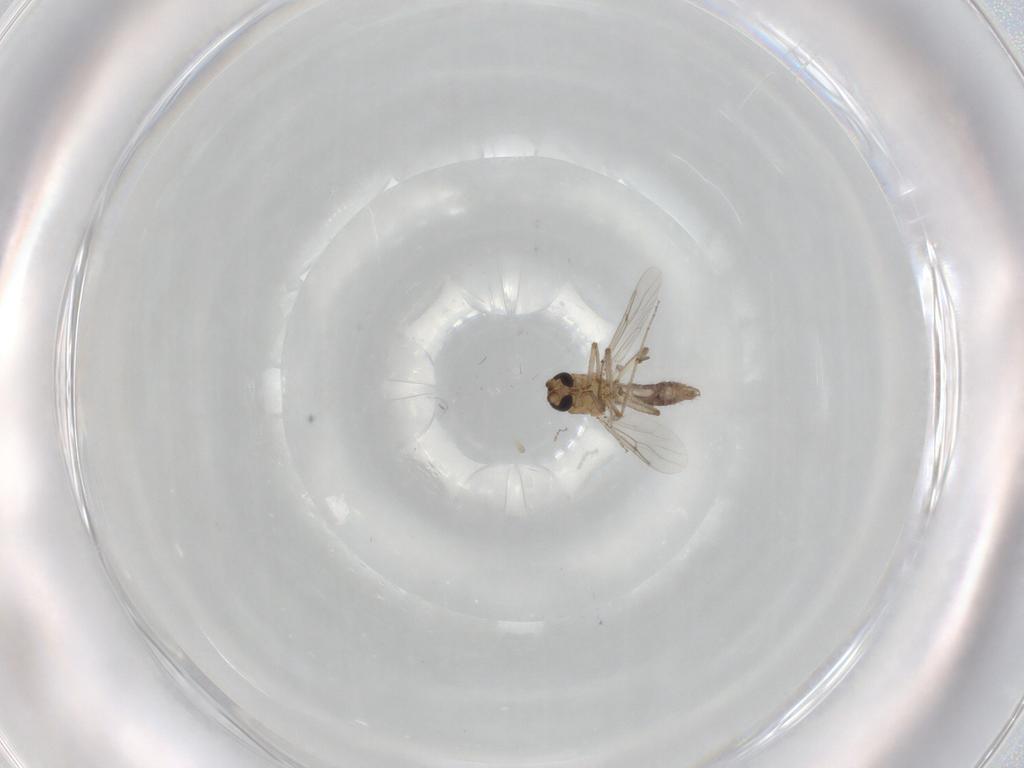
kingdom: Animalia
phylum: Arthropoda
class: Insecta
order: Diptera
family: Ceratopogonidae
